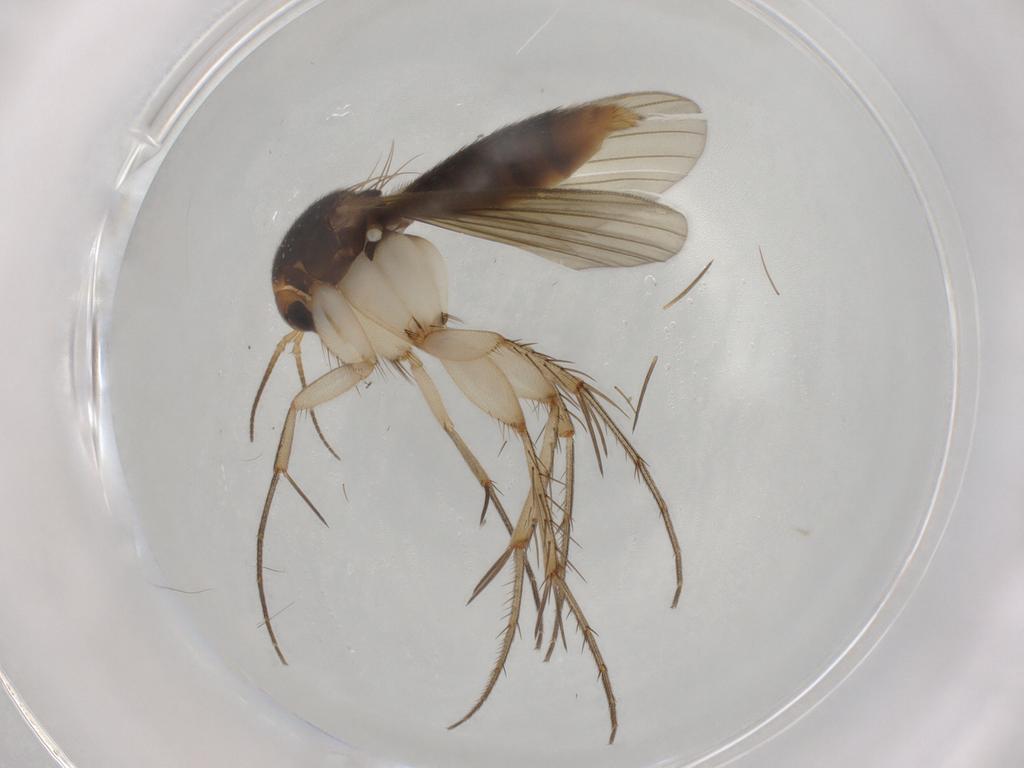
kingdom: Animalia
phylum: Arthropoda
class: Insecta
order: Diptera
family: Mycetophilidae
